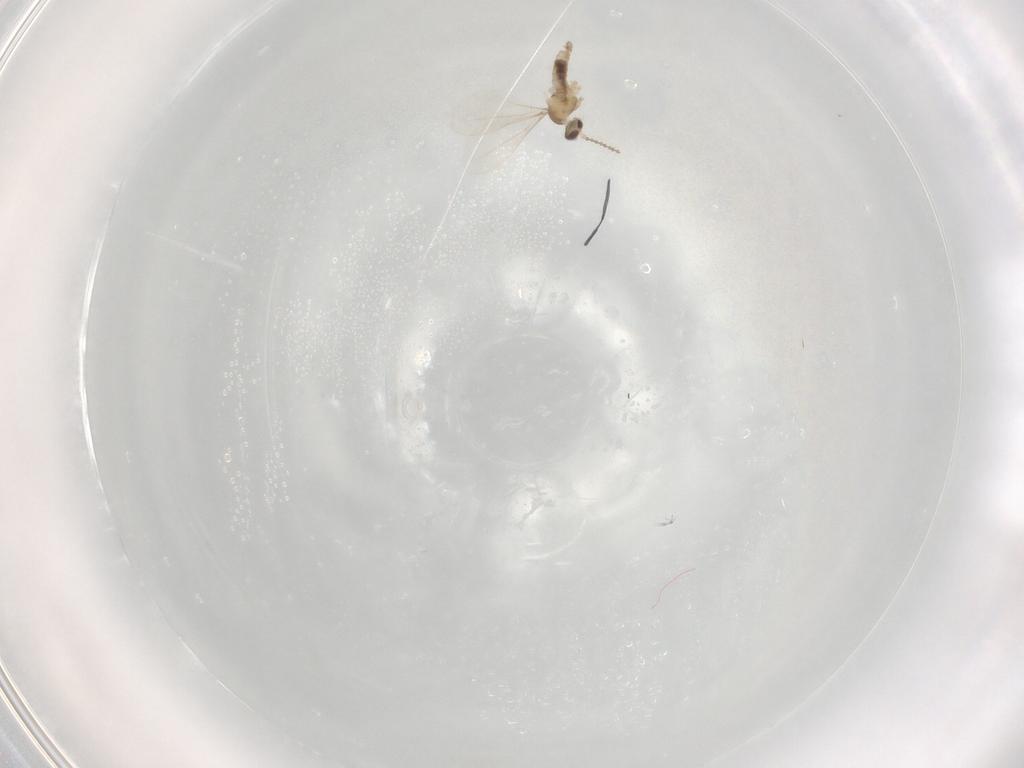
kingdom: Animalia
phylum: Arthropoda
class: Insecta
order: Diptera
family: Cecidomyiidae
